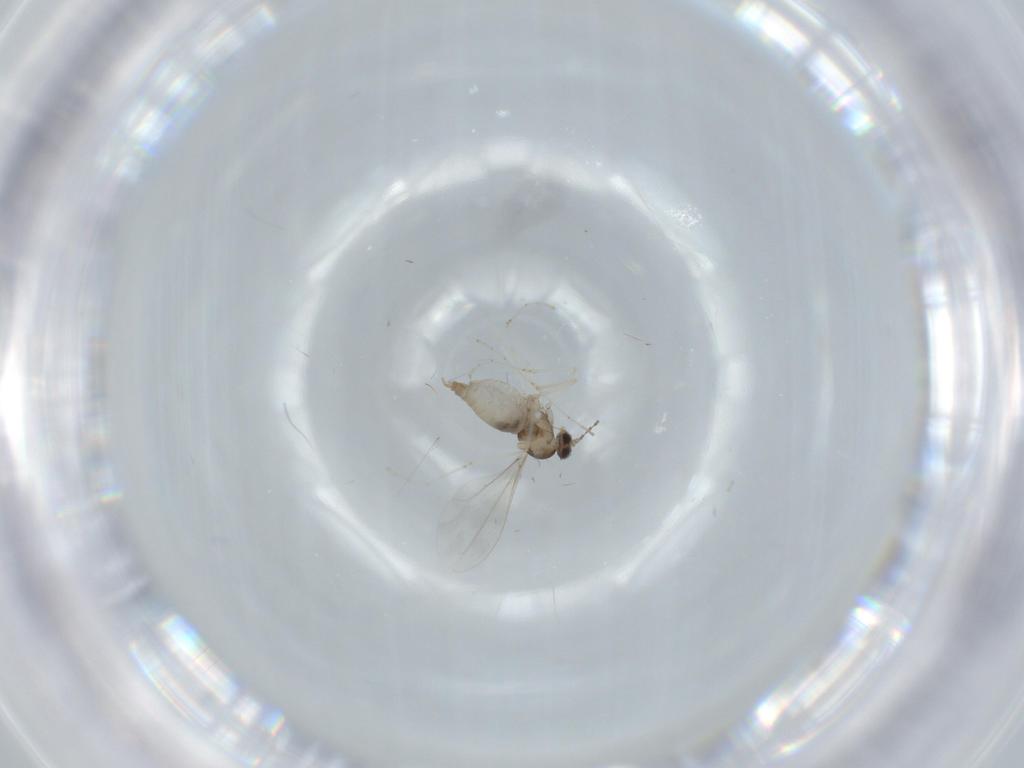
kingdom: Animalia
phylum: Arthropoda
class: Insecta
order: Diptera
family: Cecidomyiidae
